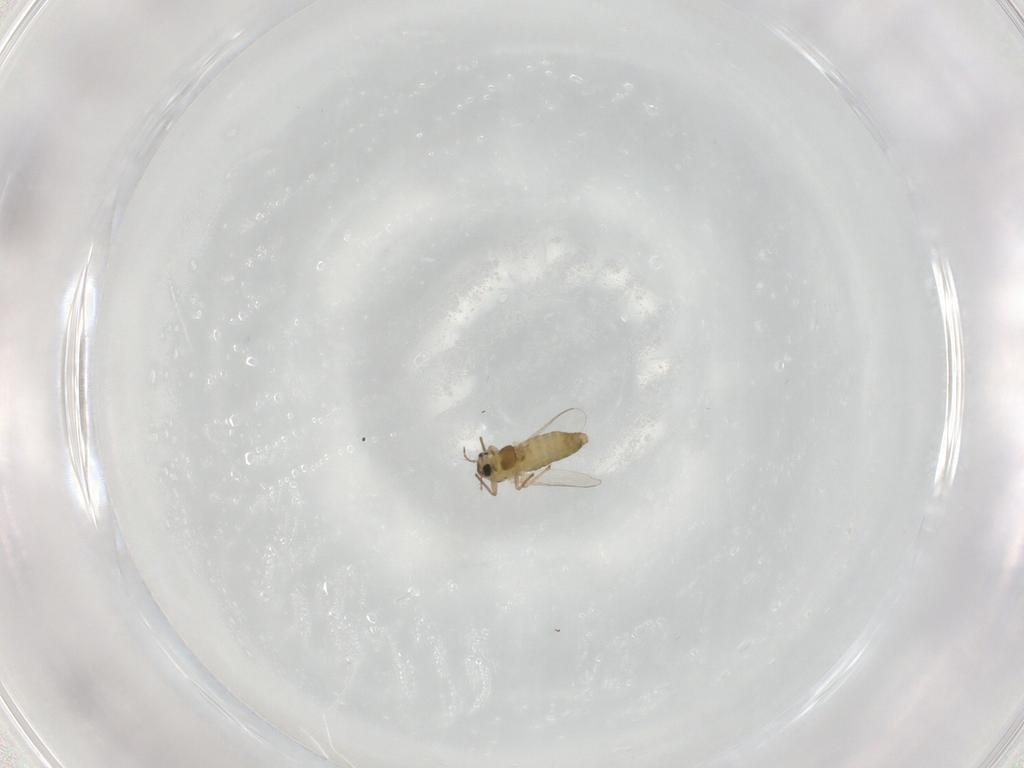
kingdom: Animalia
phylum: Arthropoda
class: Insecta
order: Diptera
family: Chironomidae
